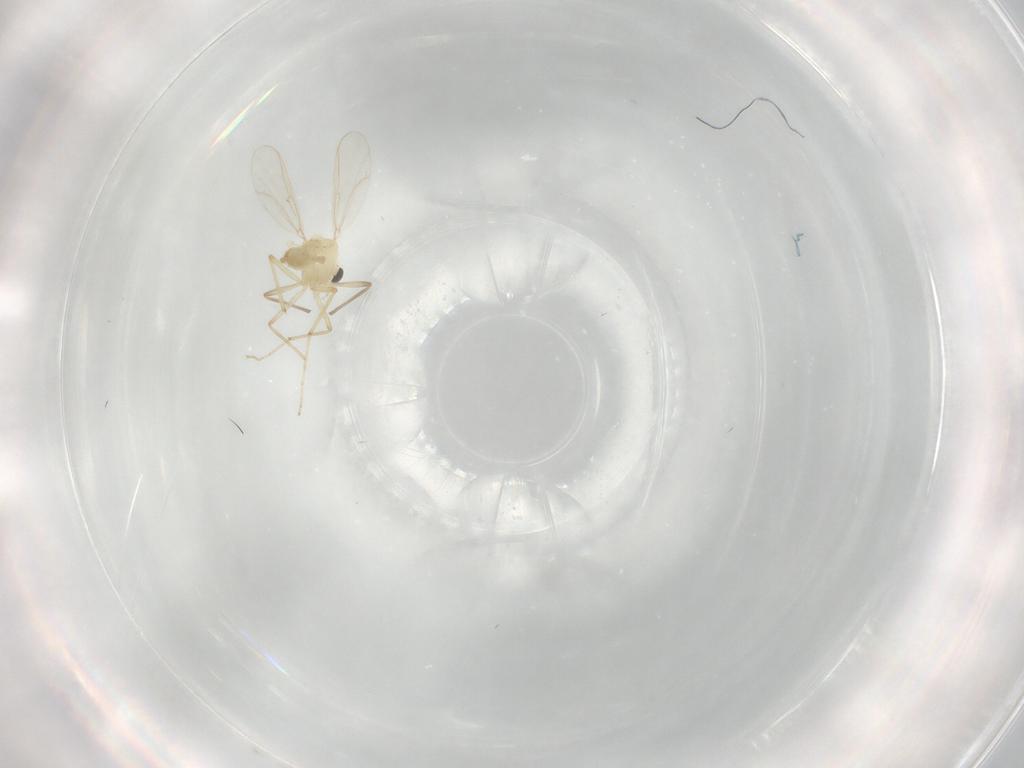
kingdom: Animalia
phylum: Arthropoda
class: Insecta
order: Diptera
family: Chironomidae
